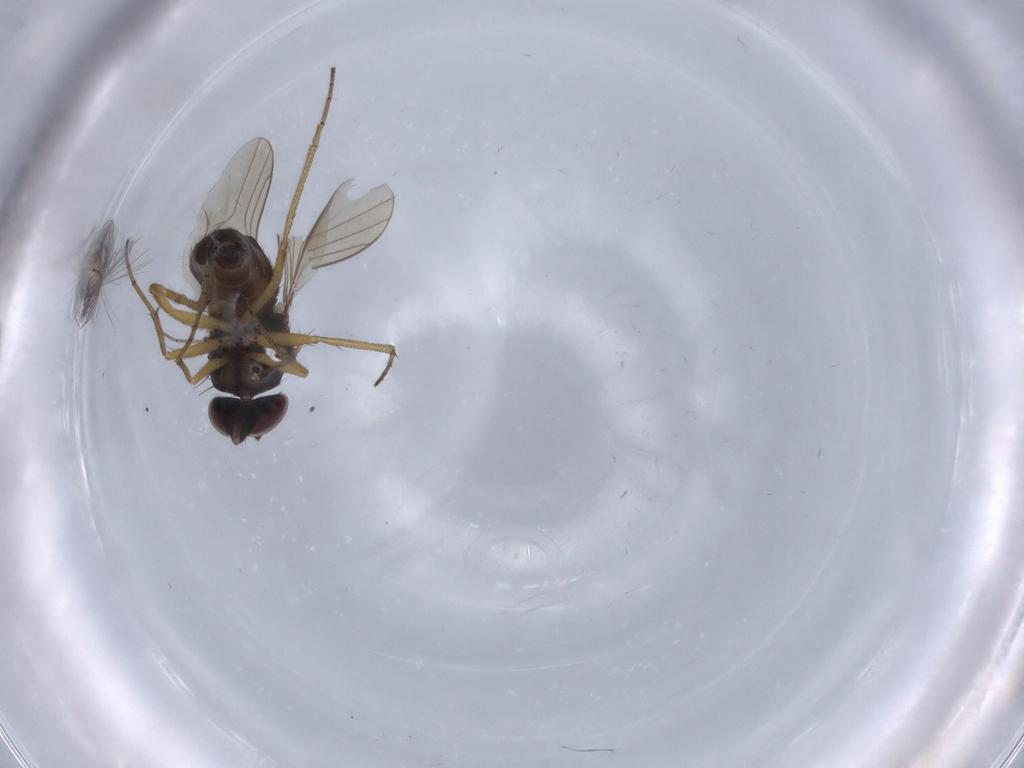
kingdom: Animalia
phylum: Arthropoda
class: Insecta
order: Diptera
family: Dolichopodidae
